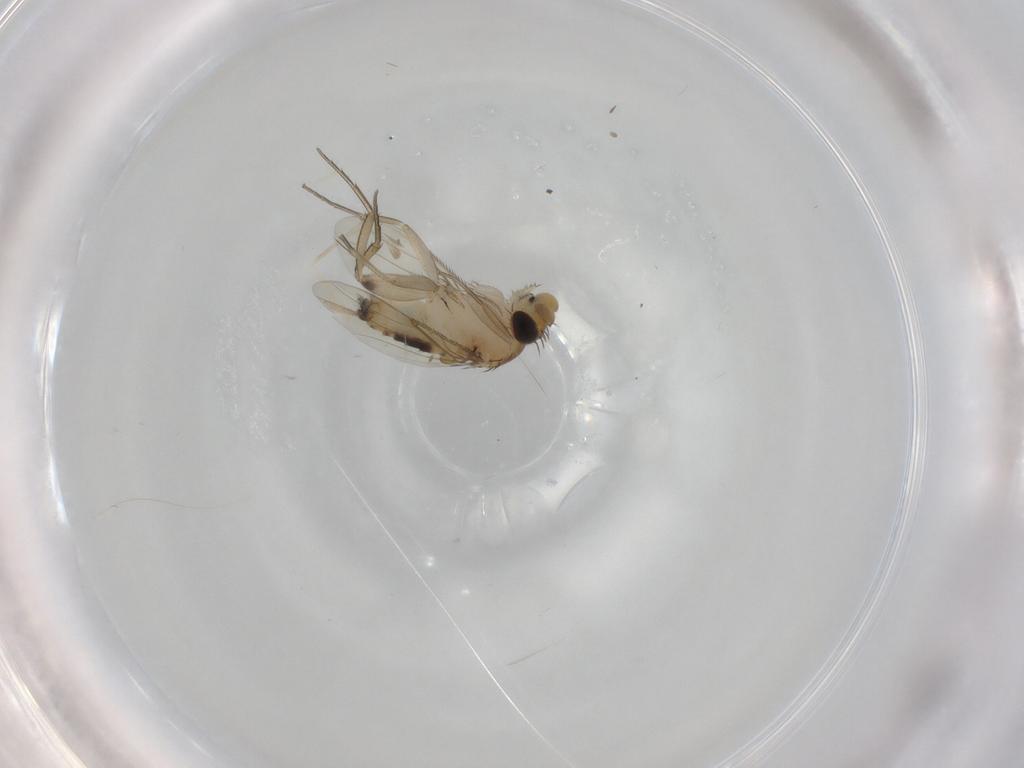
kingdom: Animalia
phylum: Arthropoda
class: Insecta
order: Diptera
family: Phoridae
